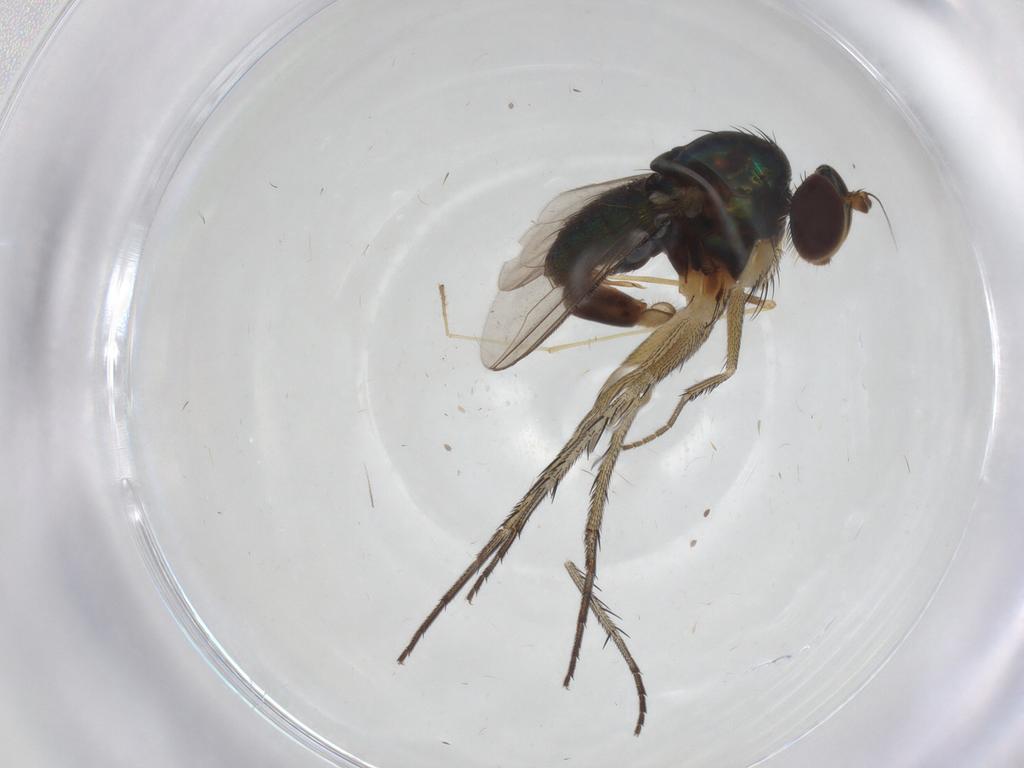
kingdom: Animalia
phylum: Arthropoda
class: Insecta
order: Diptera
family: Dolichopodidae
